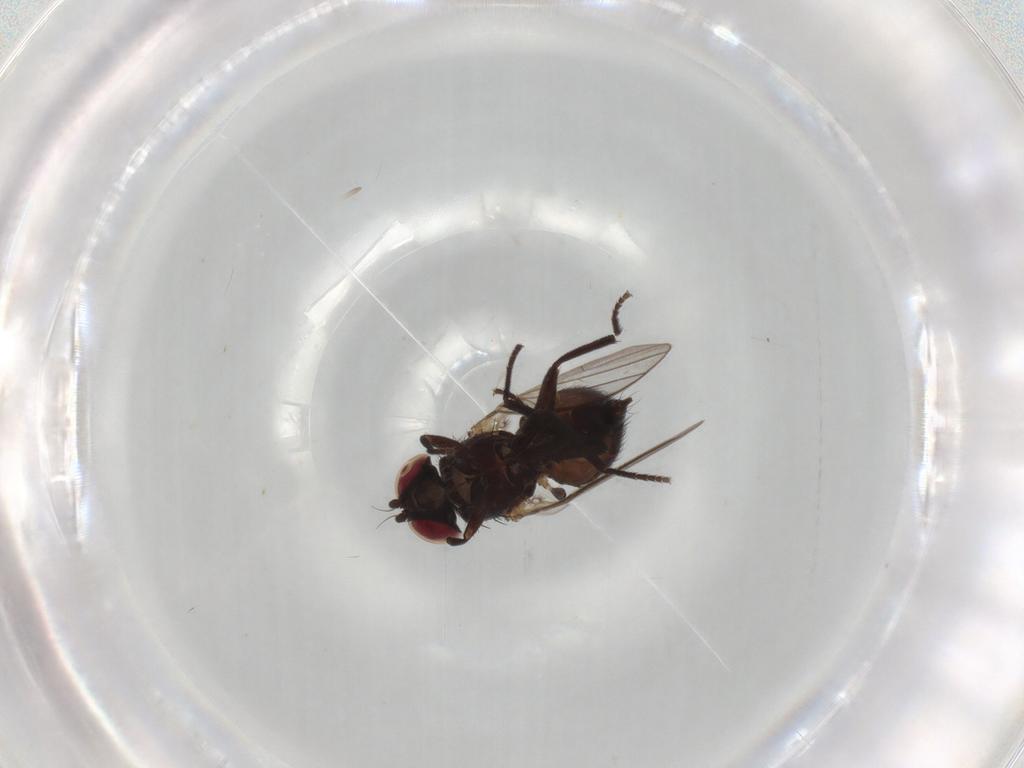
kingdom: Animalia
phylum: Arthropoda
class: Insecta
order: Diptera
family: Agromyzidae
